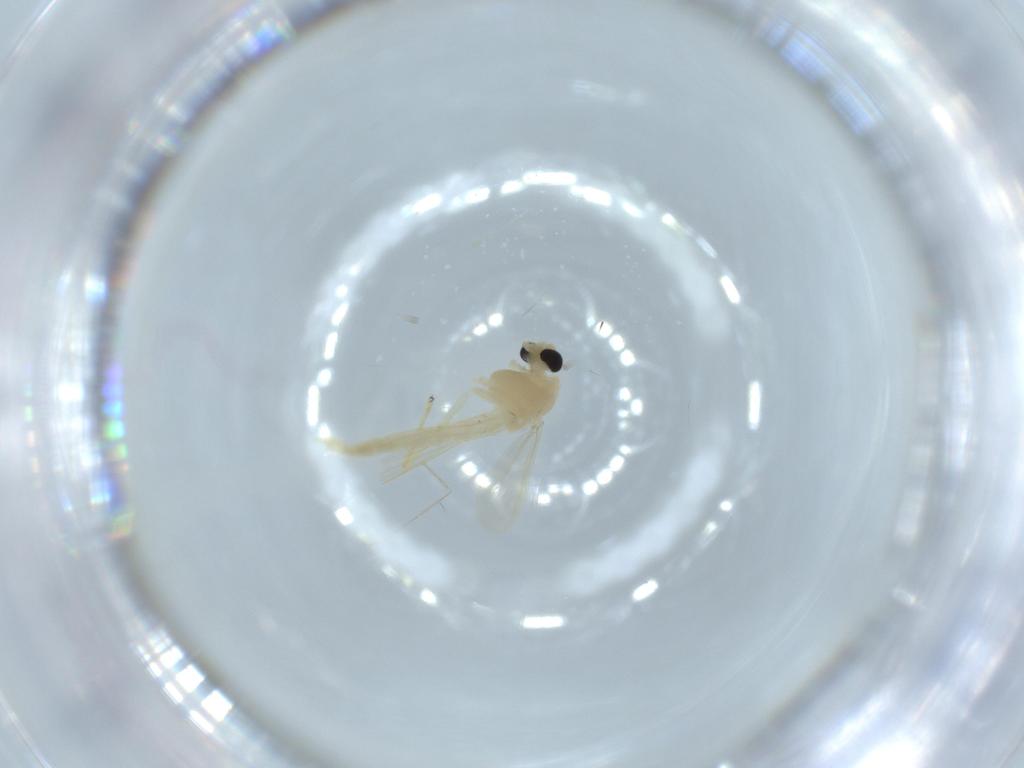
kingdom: Animalia
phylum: Arthropoda
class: Insecta
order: Diptera
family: Chironomidae
